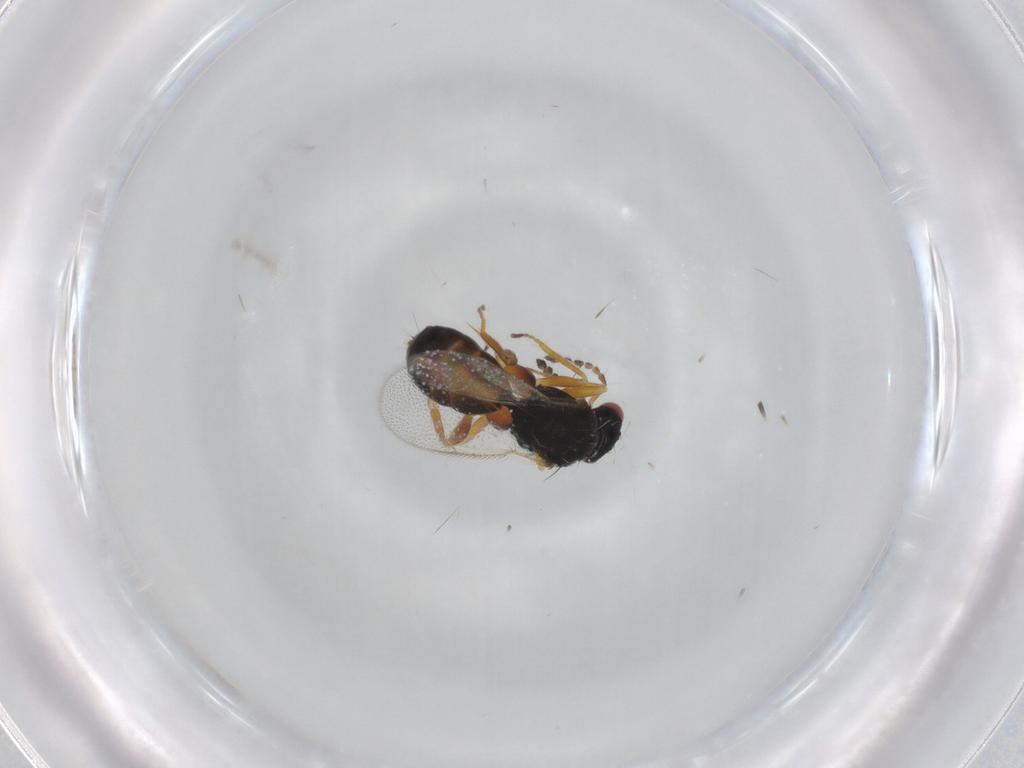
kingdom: Animalia
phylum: Arthropoda
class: Insecta
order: Hymenoptera
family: Eulophidae
